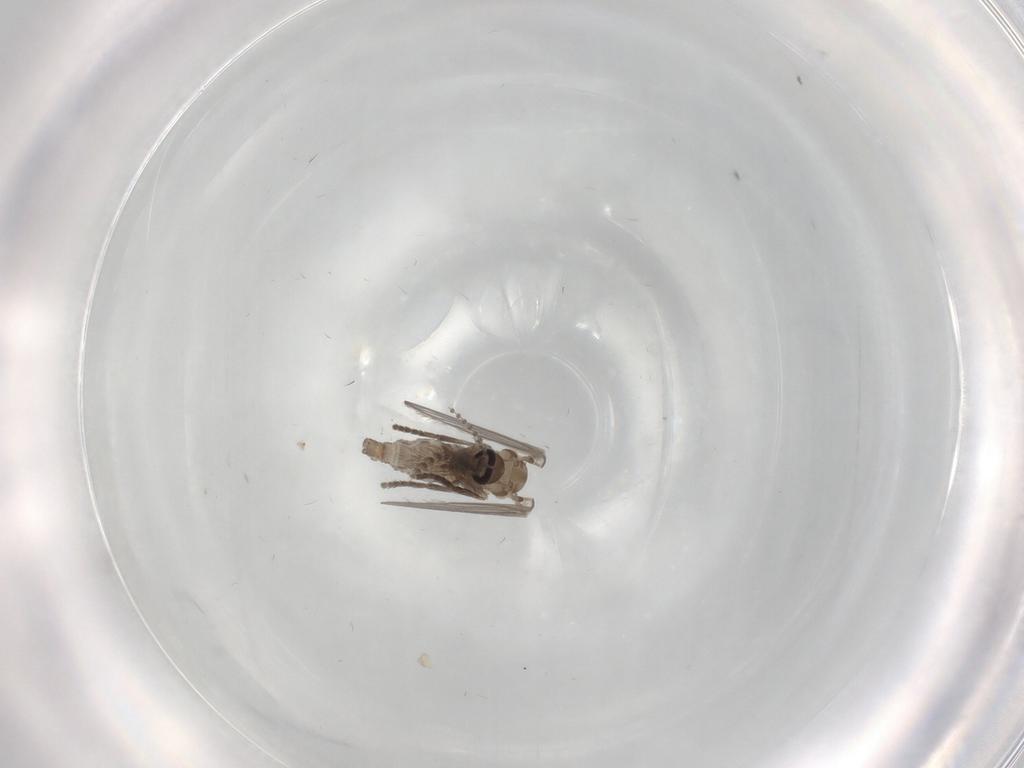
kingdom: Animalia
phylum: Arthropoda
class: Insecta
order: Diptera
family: Psychodidae
